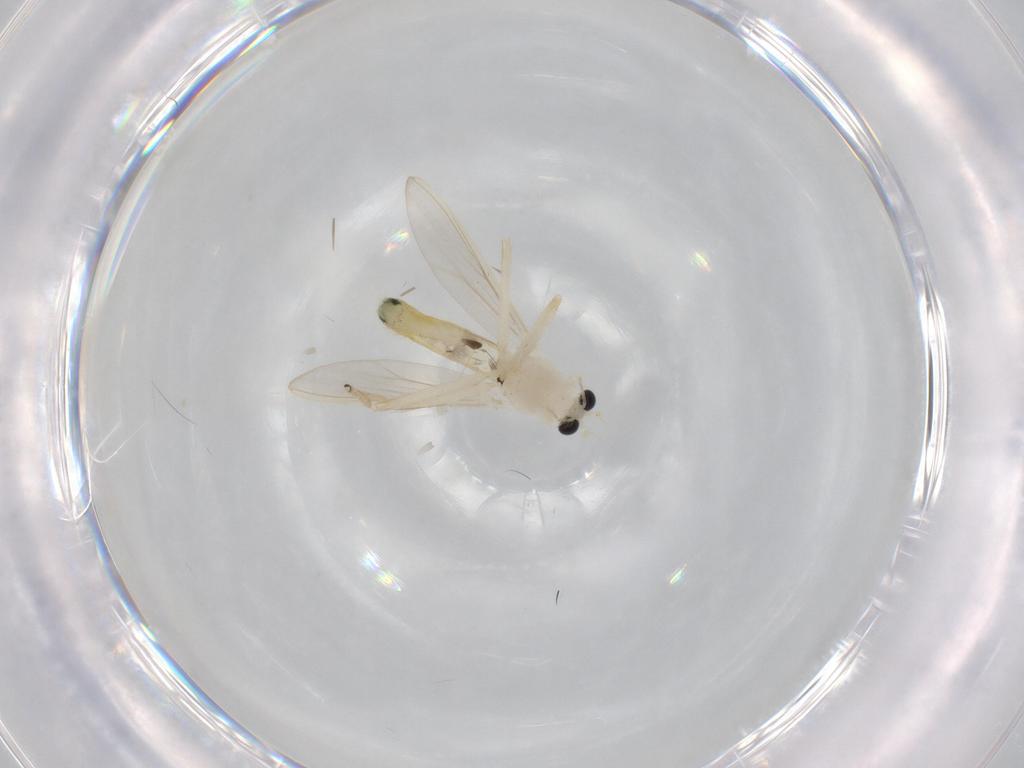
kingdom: Animalia
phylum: Arthropoda
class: Insecta
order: Diptera
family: Chironomidae
